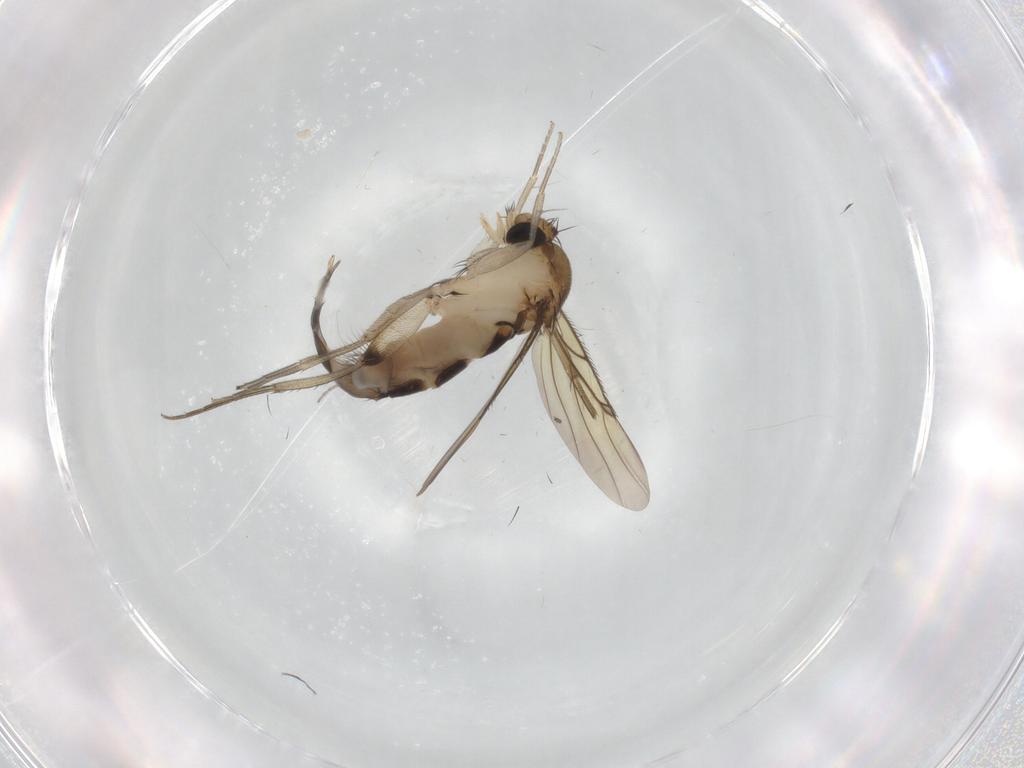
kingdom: Animalia
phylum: Arthropoda
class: Insecta
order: Diptera
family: Phoridae
